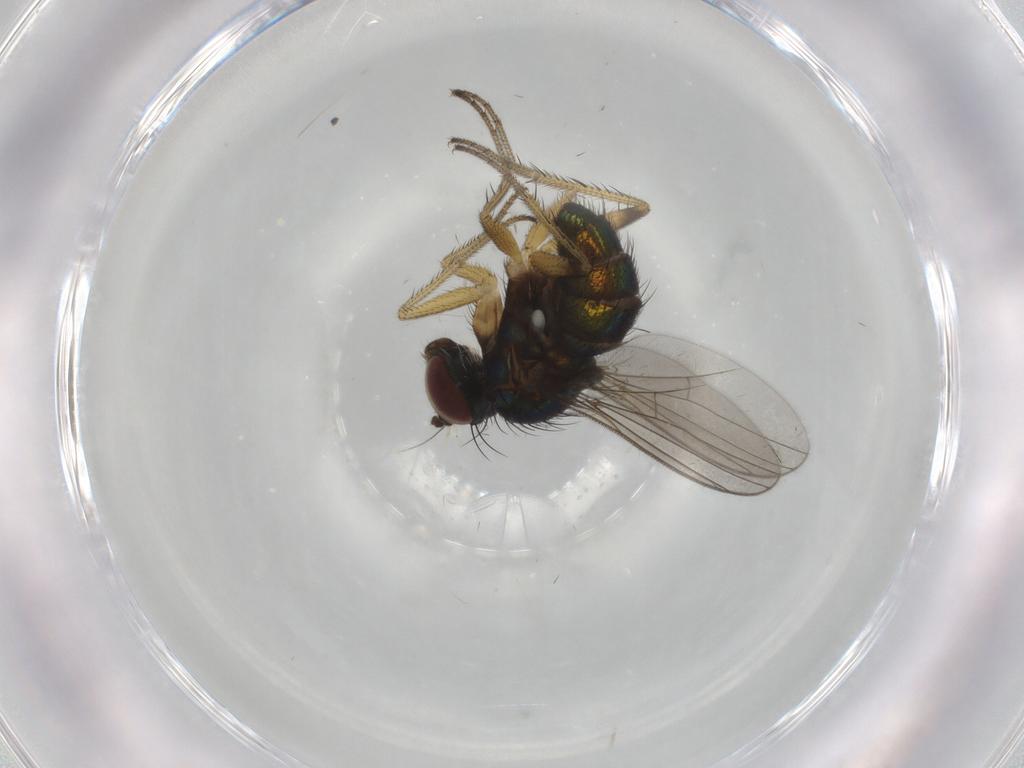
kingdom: Animalia
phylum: Arthropoda
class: Insecta
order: Diptera
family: Dolichopodidae
